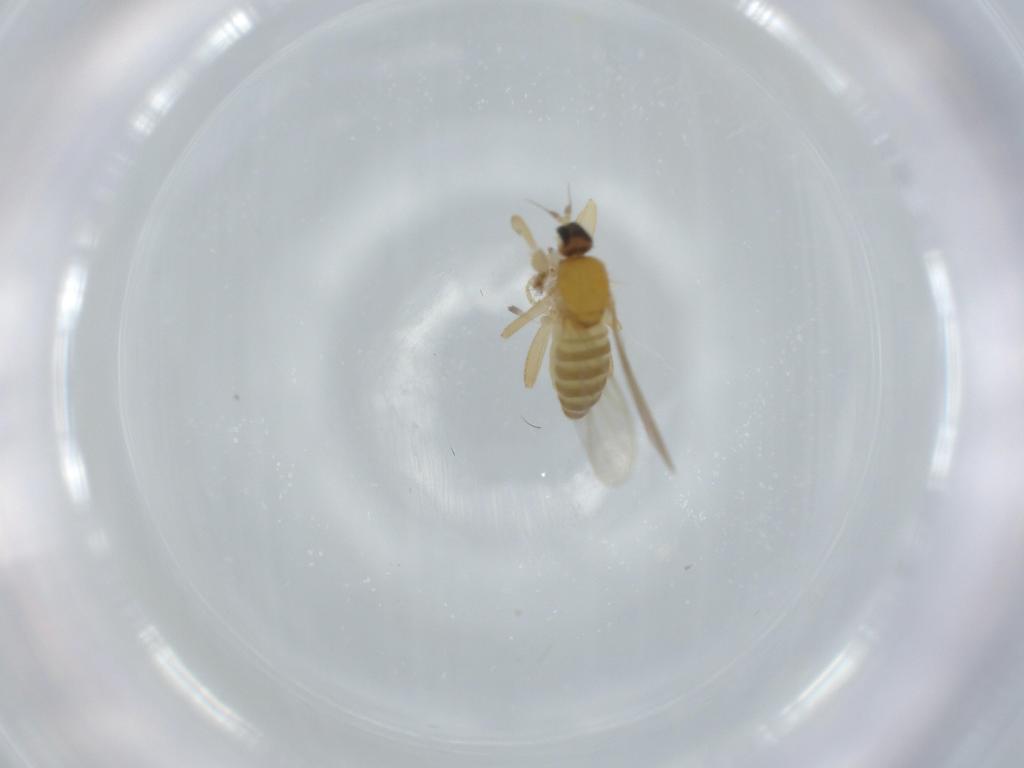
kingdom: Animalia
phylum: Arthropoda
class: Insecta
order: Diptera
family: Hybotidae
